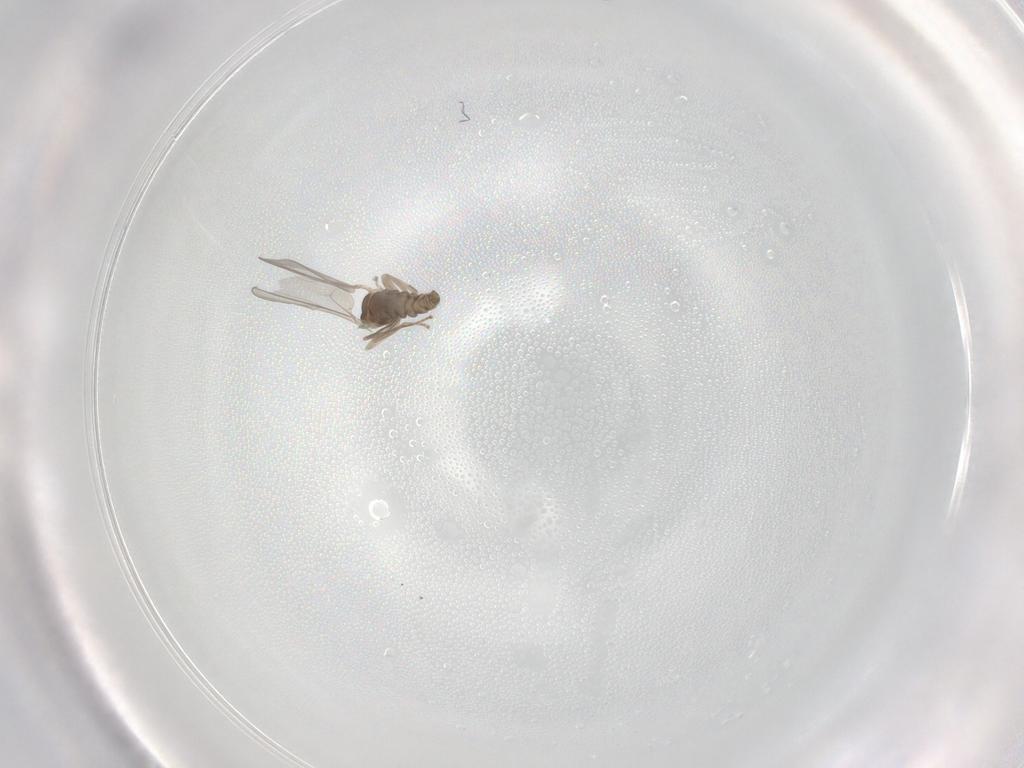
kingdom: Animalia
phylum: Arthropoda
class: Insecta
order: Diptera
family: Cecidomyiidae
